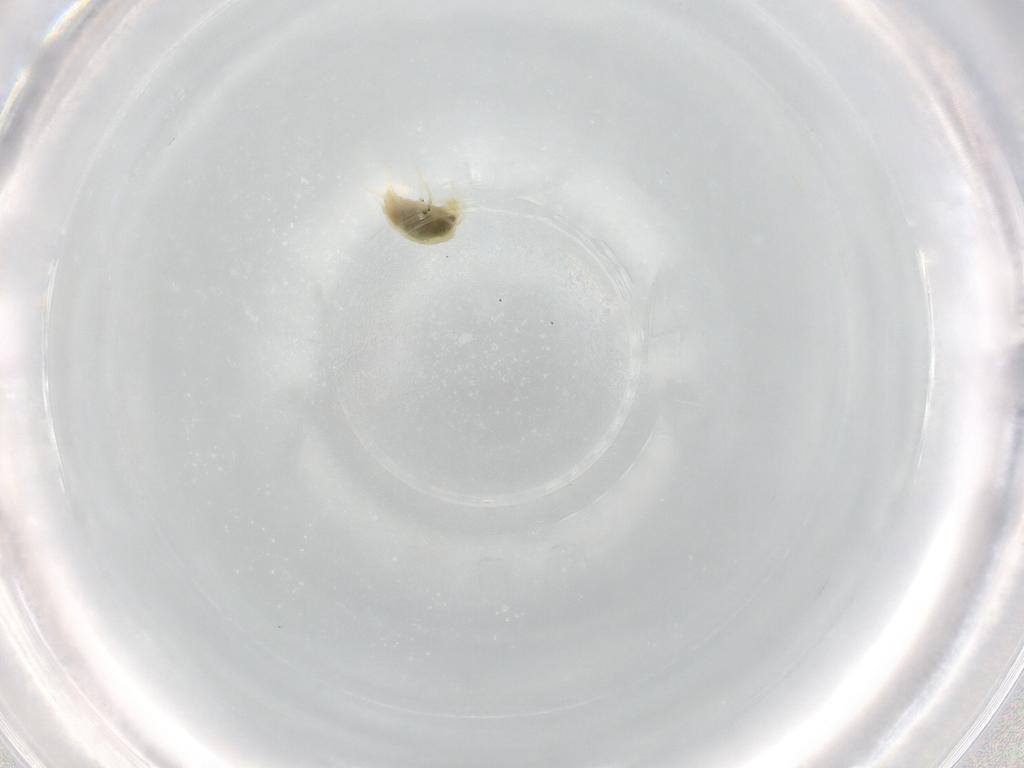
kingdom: Animalia
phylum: Arthropoda
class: Arachnida
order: Trombidiformes
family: Tetranychidae
